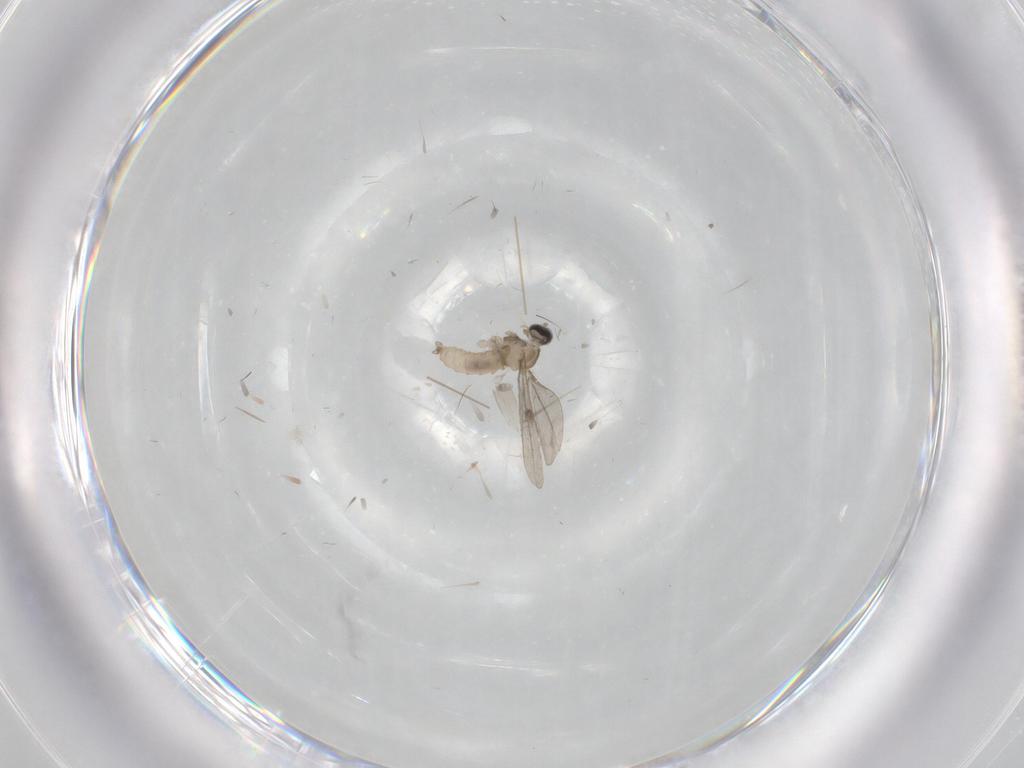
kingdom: Animalia
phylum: Arthropoda
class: Insecta
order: Diptera
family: Cecidomyiidae
